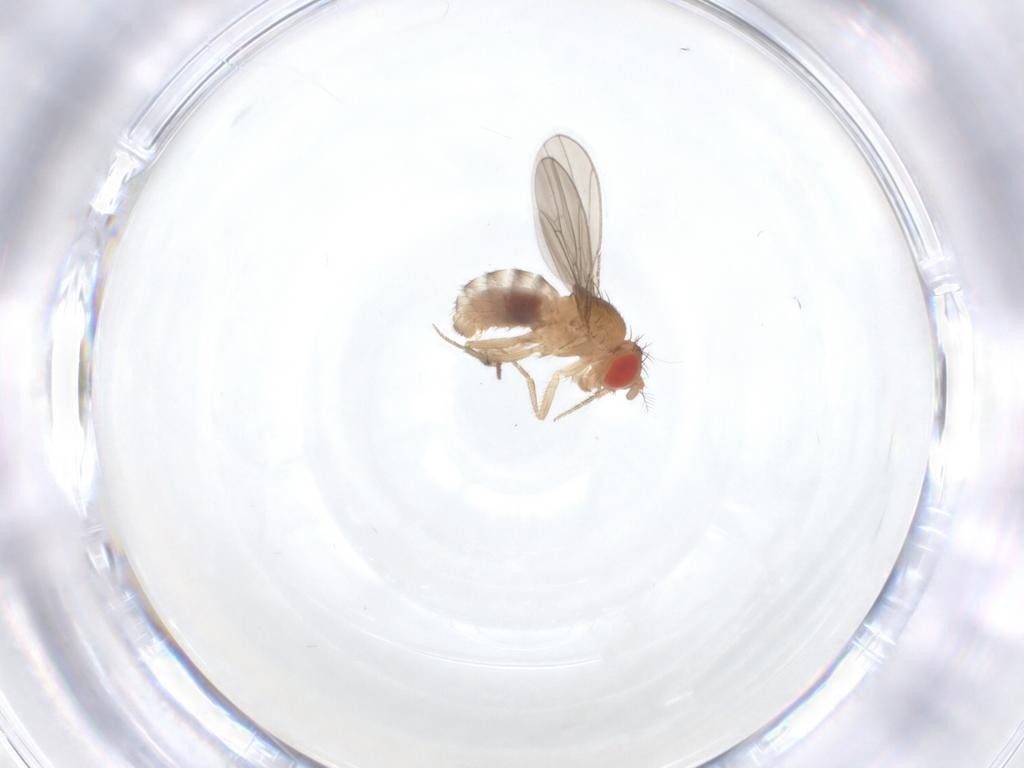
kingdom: Animalia
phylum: Arthropoda
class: Insecta
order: Diptera
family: Drosophilidae
